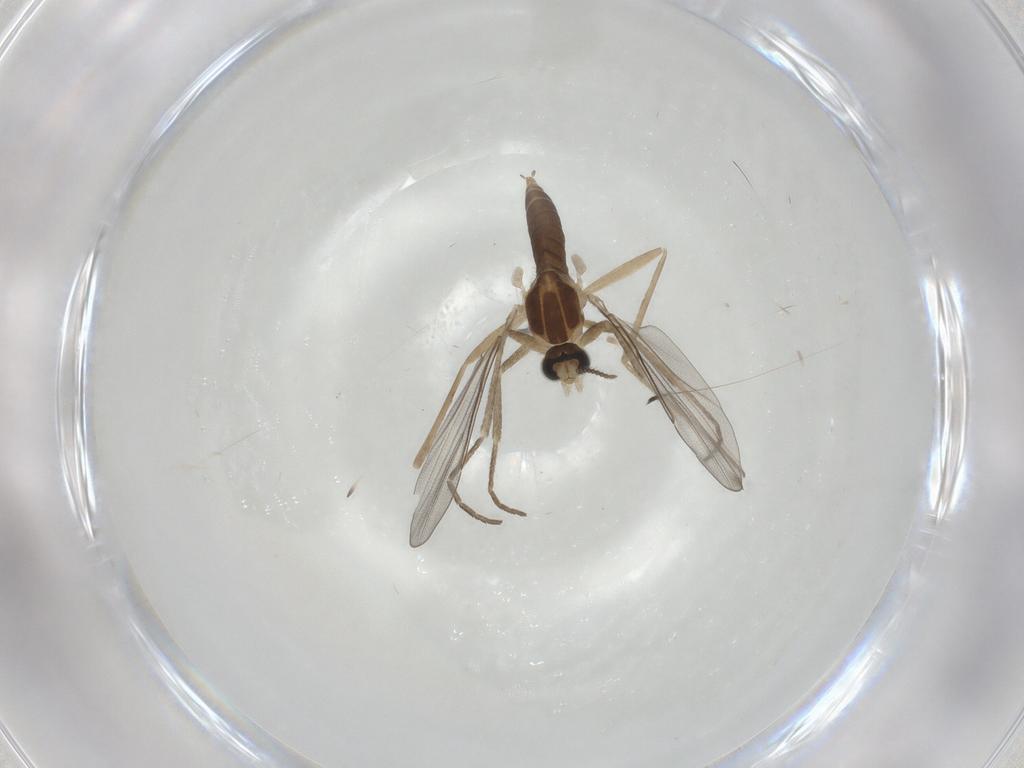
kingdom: Animalia
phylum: Arthropoda
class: Insecta
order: Diptera
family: Cecidomyiidae
